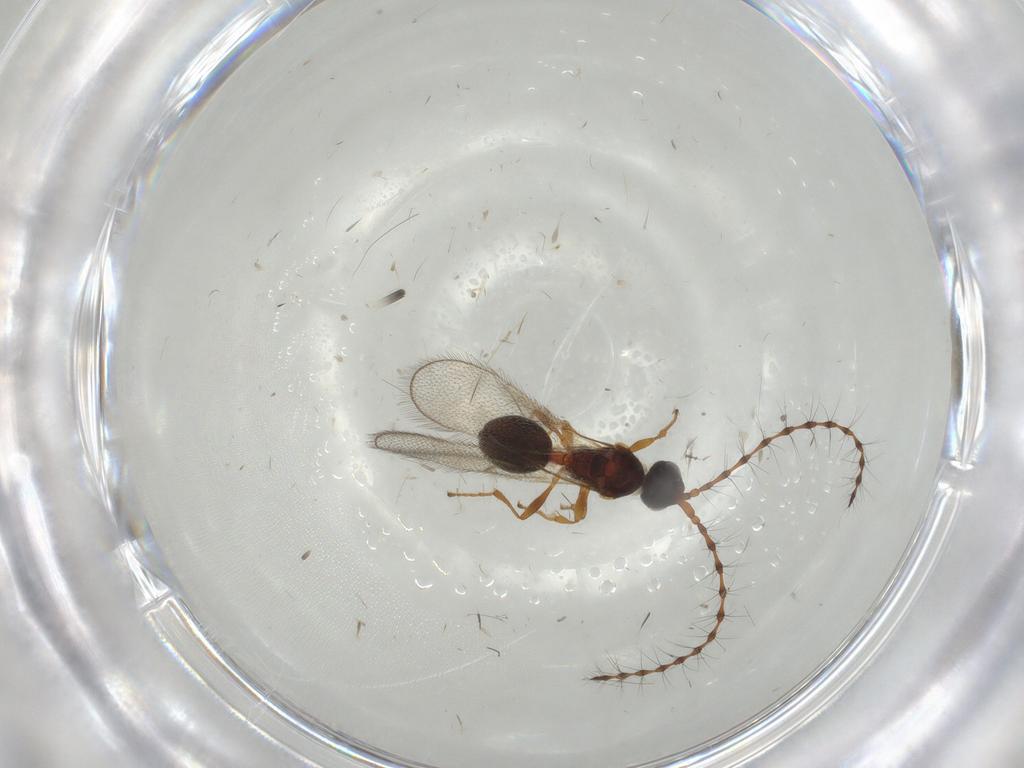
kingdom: Animalia
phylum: Arthropoda
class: Insecta
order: Hymenoptera
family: Diapriidae
